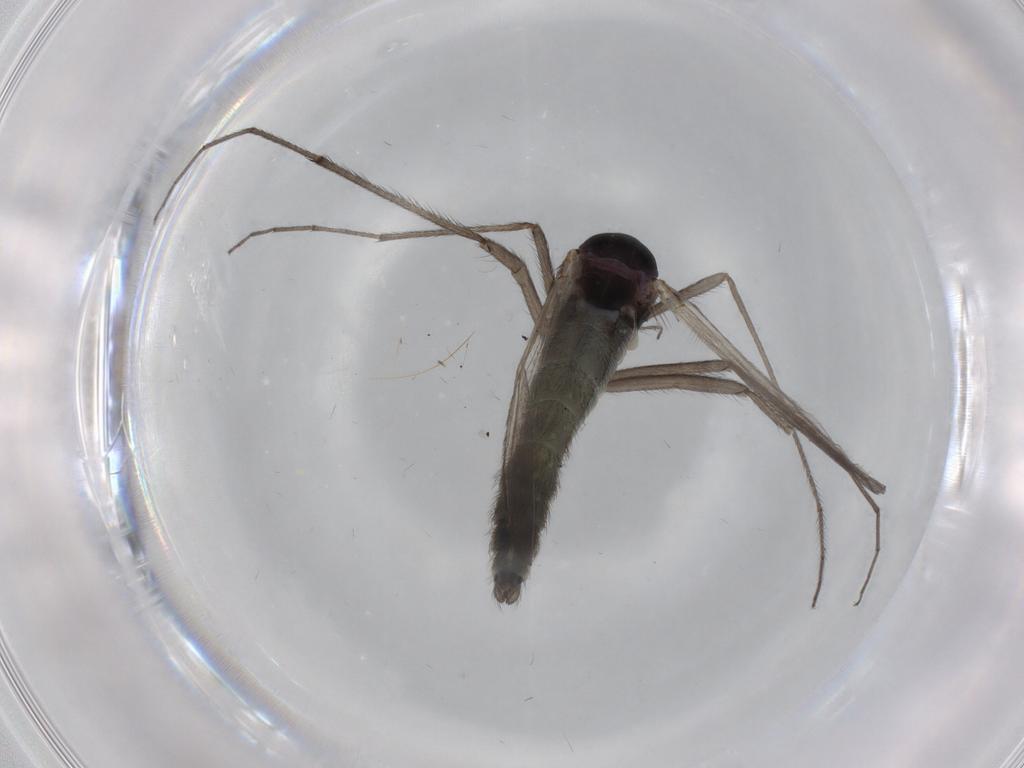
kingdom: Animalia
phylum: Arthropoda
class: Insecta
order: Diptera
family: Chironomidae
